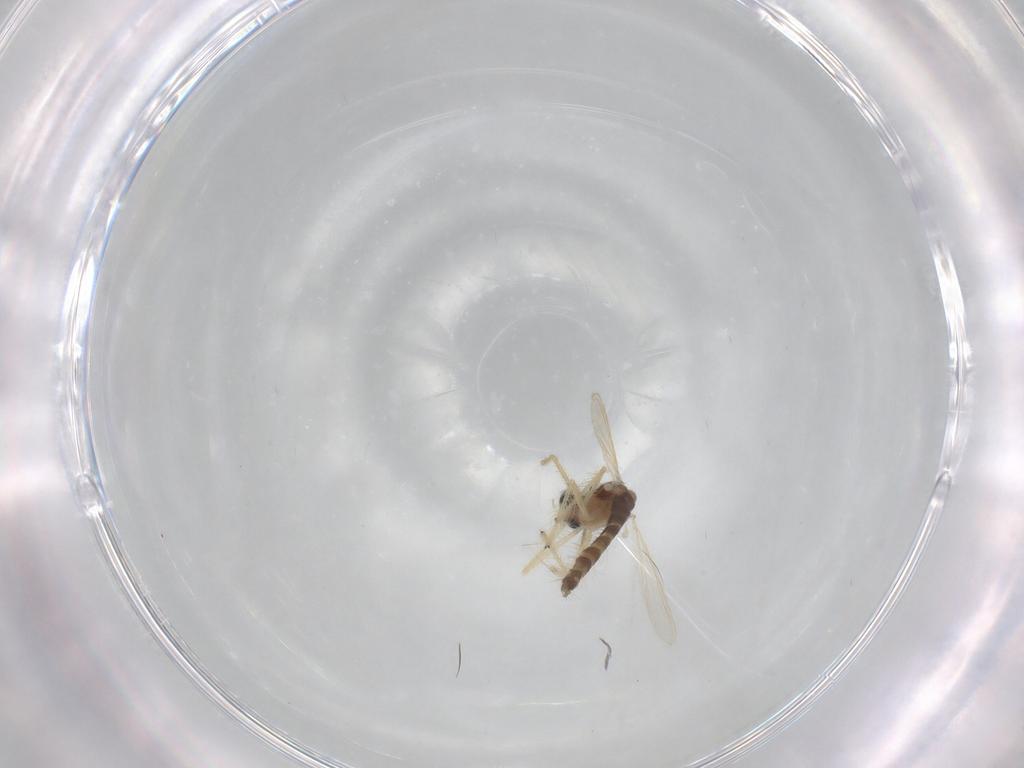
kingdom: Animalia
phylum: Arthropoda
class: Insecta
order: Diptera
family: Chironomidae
